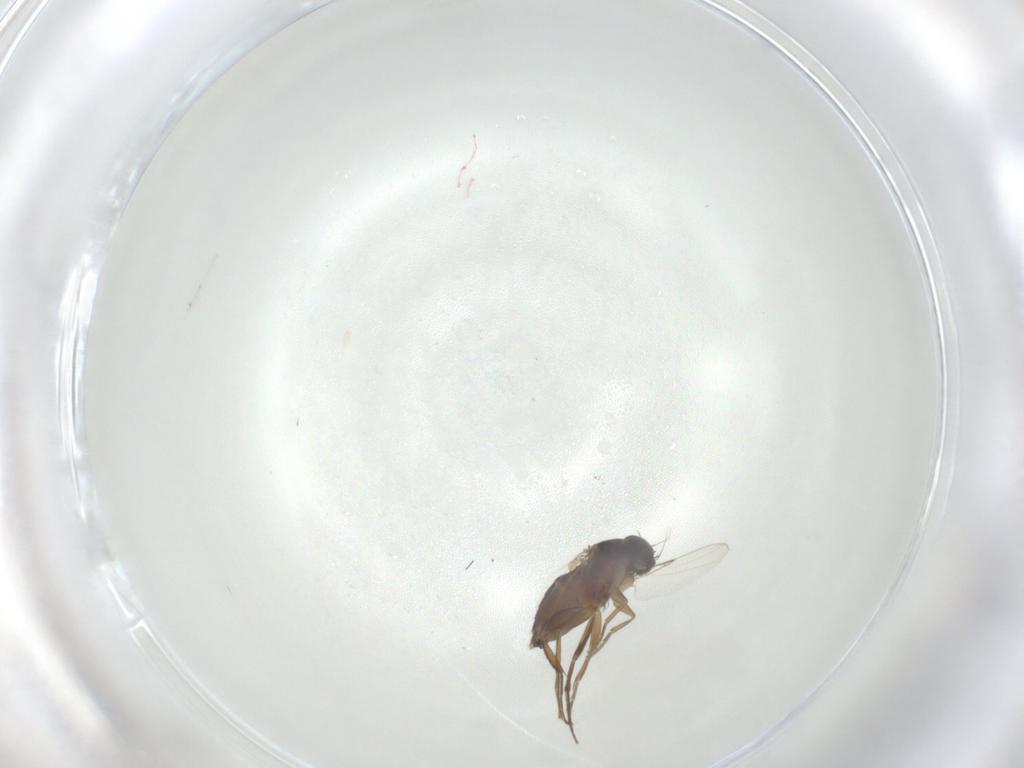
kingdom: Animalia
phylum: Arthropoda
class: Insecta
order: Diptera
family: Phoridae
